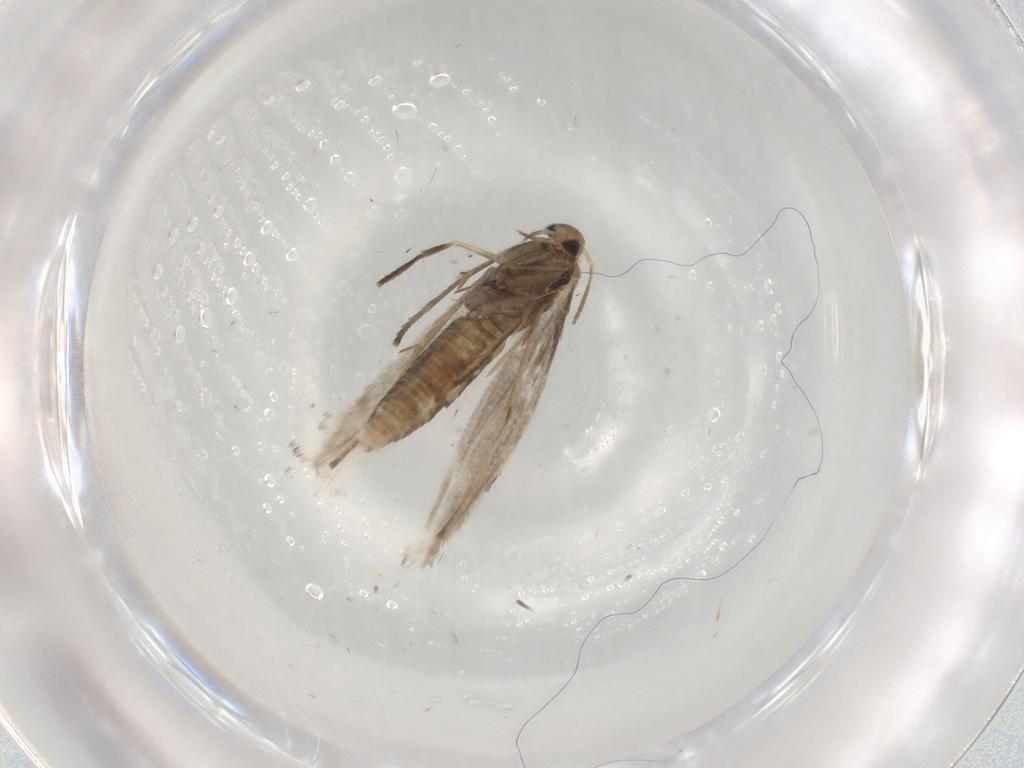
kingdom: Animalia
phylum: Arthropoda
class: Insecta
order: Lepidoptera
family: Gracillariidae
